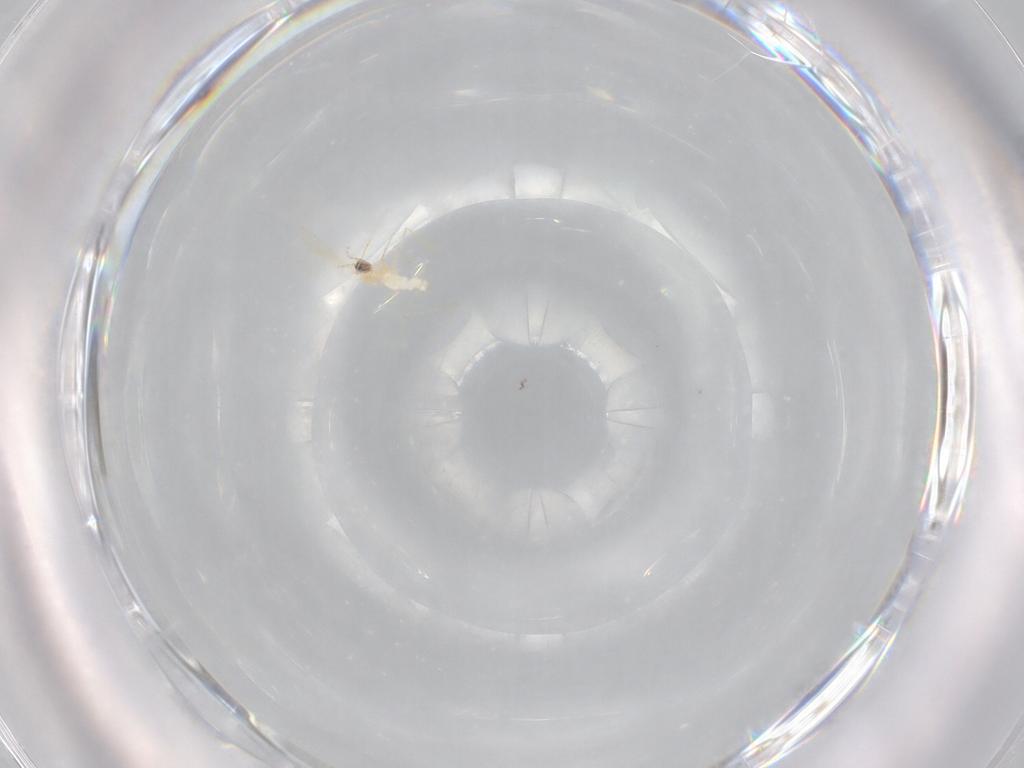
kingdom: Animalia
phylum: Arthropoda
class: Insecta
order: Diptera
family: Cecidomyiidae
